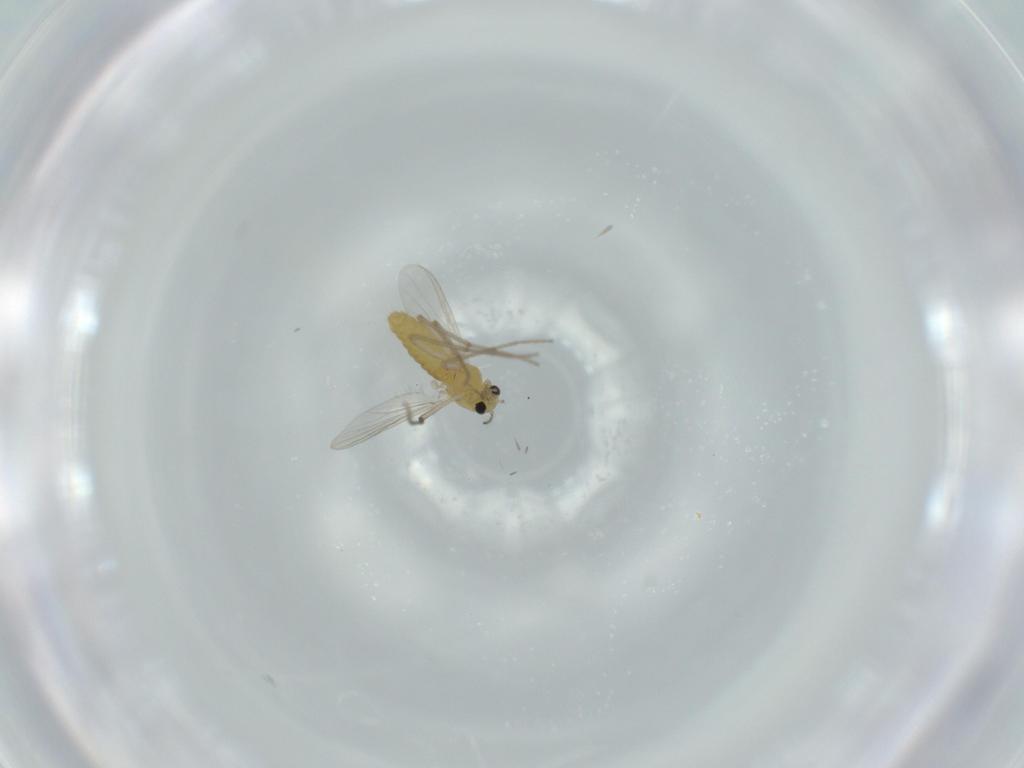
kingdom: Animalia
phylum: Arthropoda
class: Insecta
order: Diptera
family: Chironomidae
